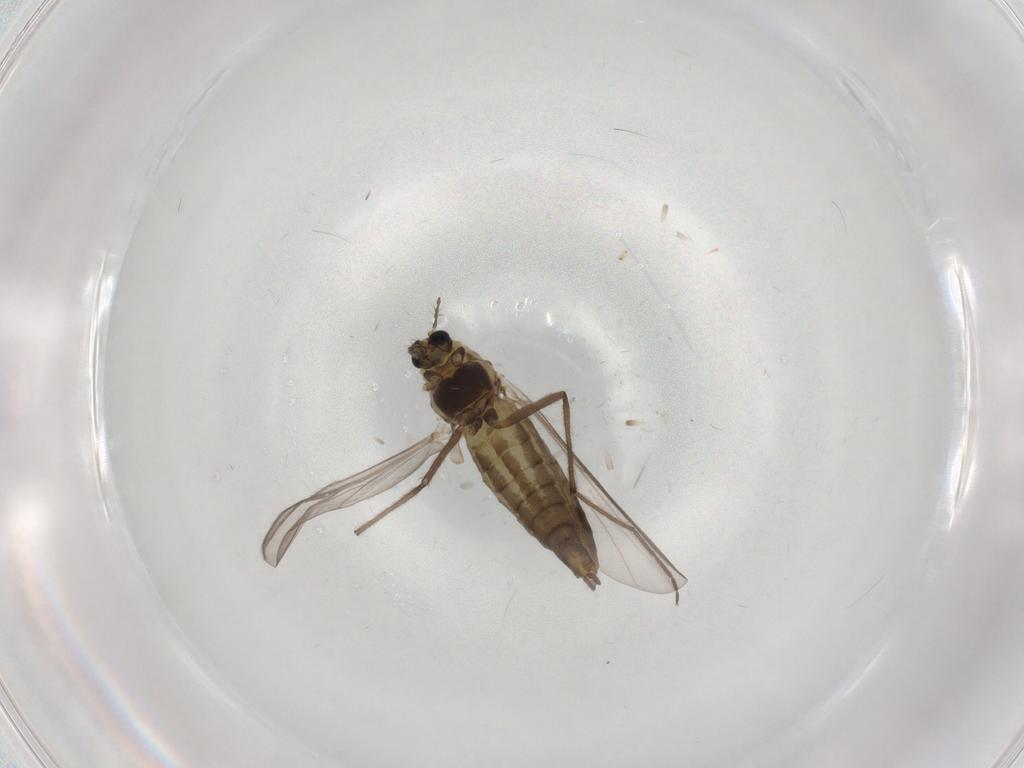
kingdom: Animalia
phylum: Arthropoda
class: Insecta
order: Diptera
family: Chironomidae
